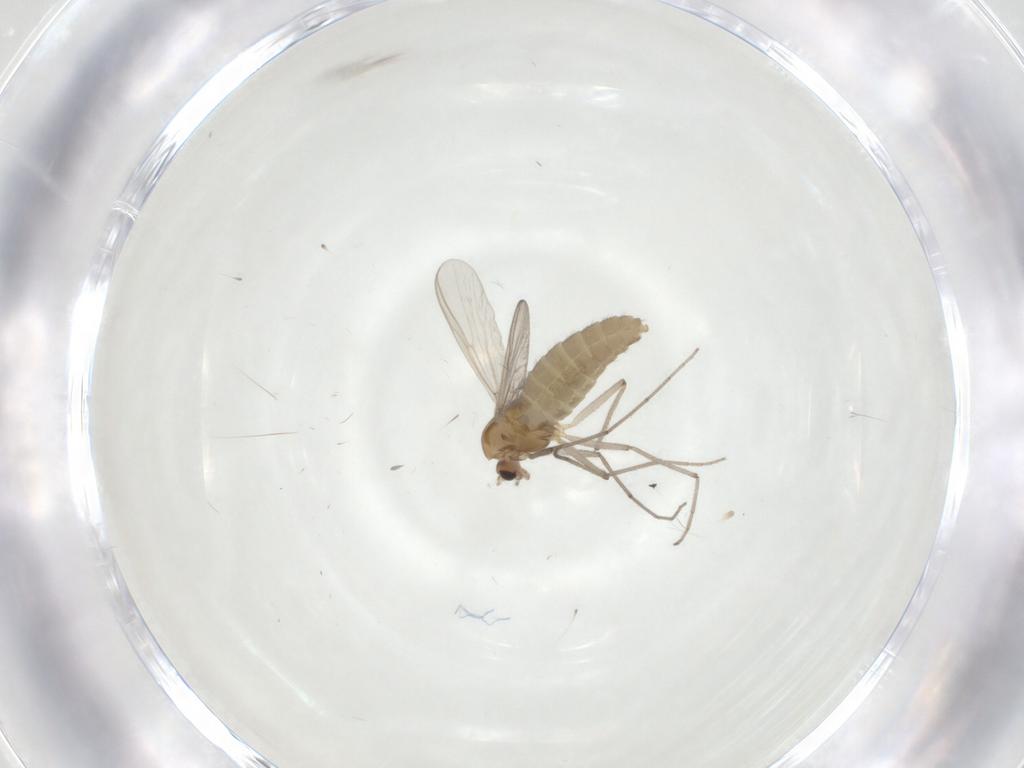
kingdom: Animalia
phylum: Arthropoda
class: Insecta
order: Diptera
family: Chironomidae
